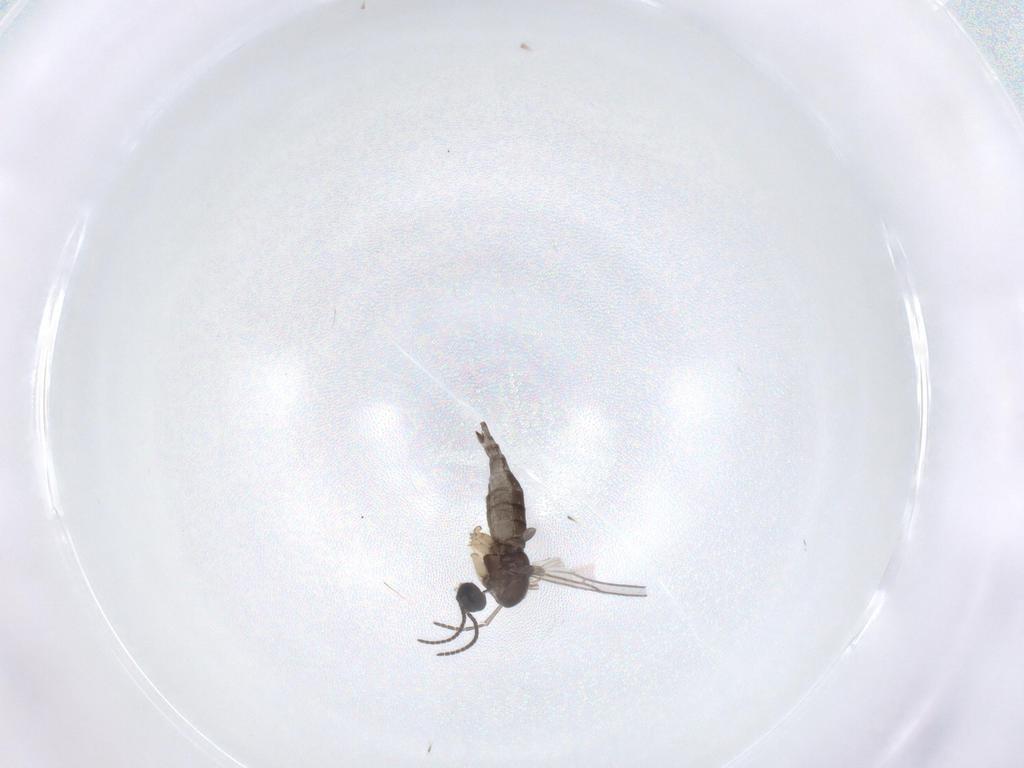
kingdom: Animalia
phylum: Arthropoda
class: Insecta
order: Diptera
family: Sciaridae
